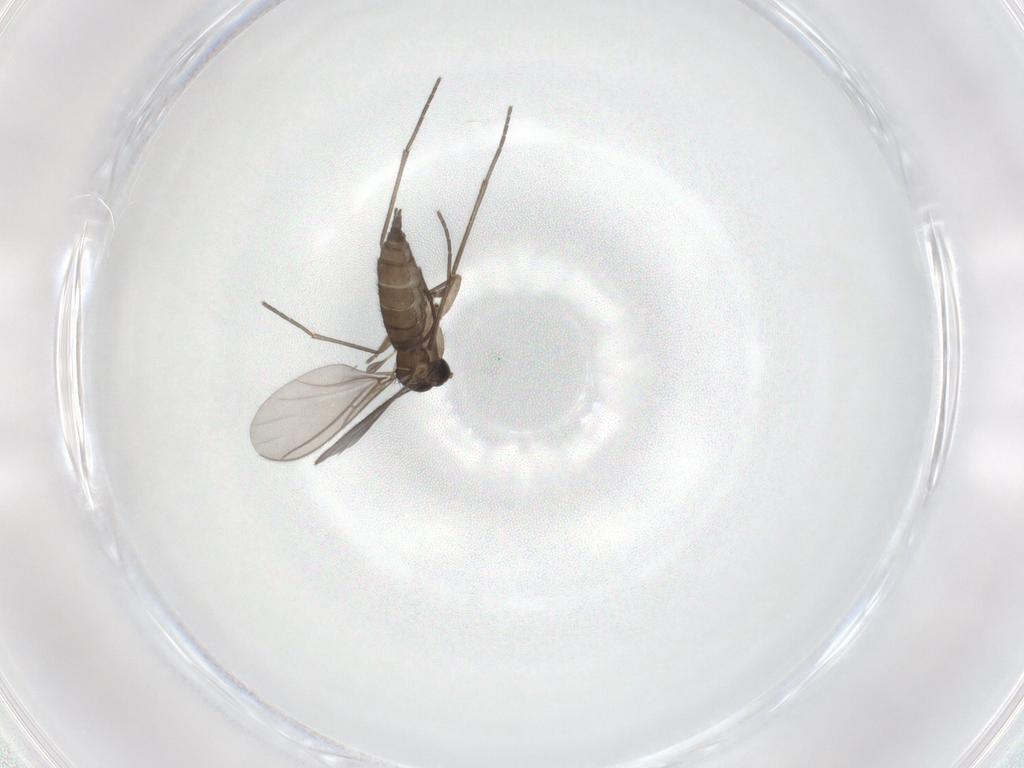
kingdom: Animalia
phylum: Arthropoda
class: Insecta
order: Diptera
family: Sciaridae
